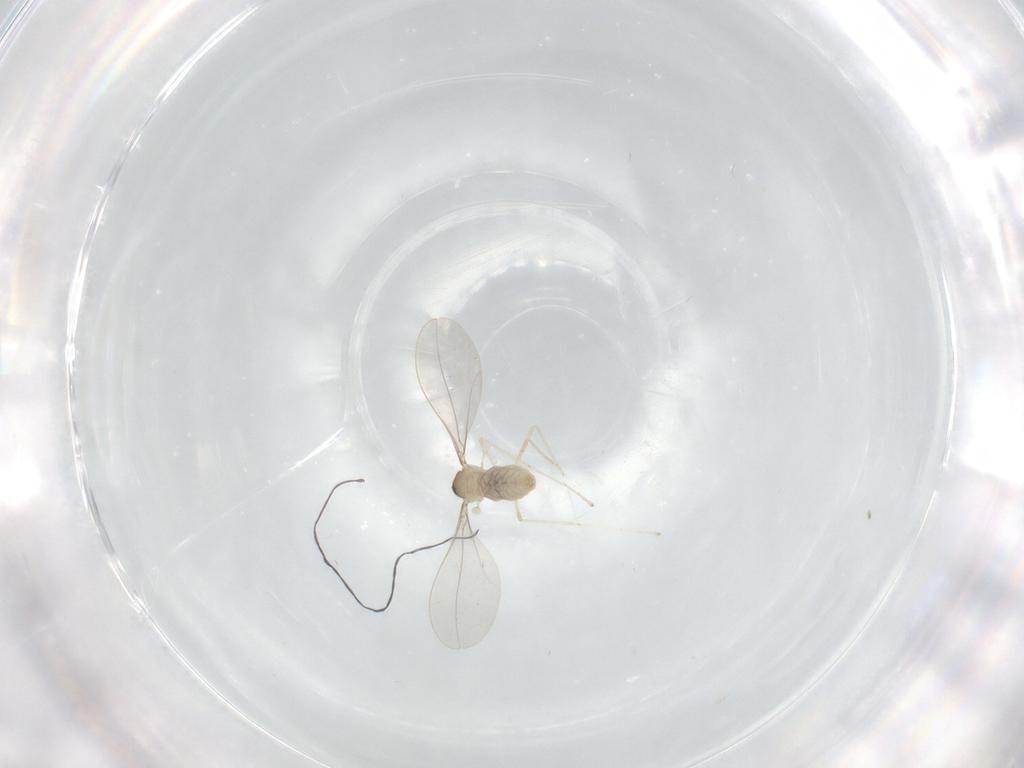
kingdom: Animalia
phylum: Arthropoda
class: Insecta
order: Diptera
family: Cecidomyiidae
